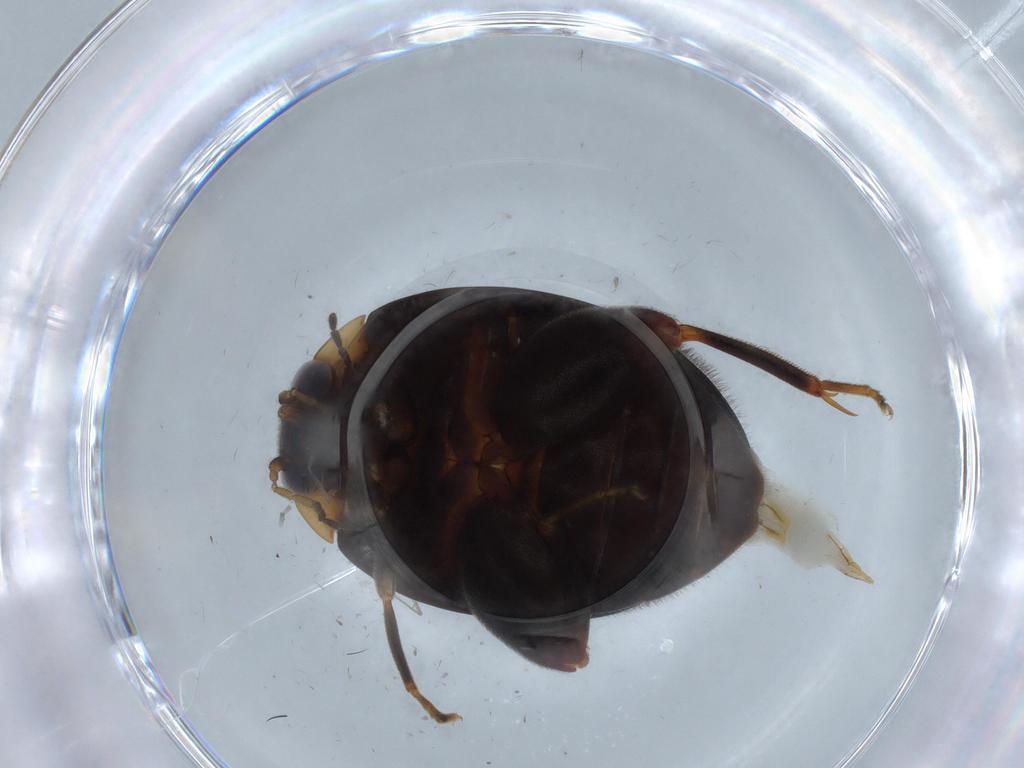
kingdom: Animalia
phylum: Arthropoda
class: Insecta
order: Coleoptera
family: Scirtidae
